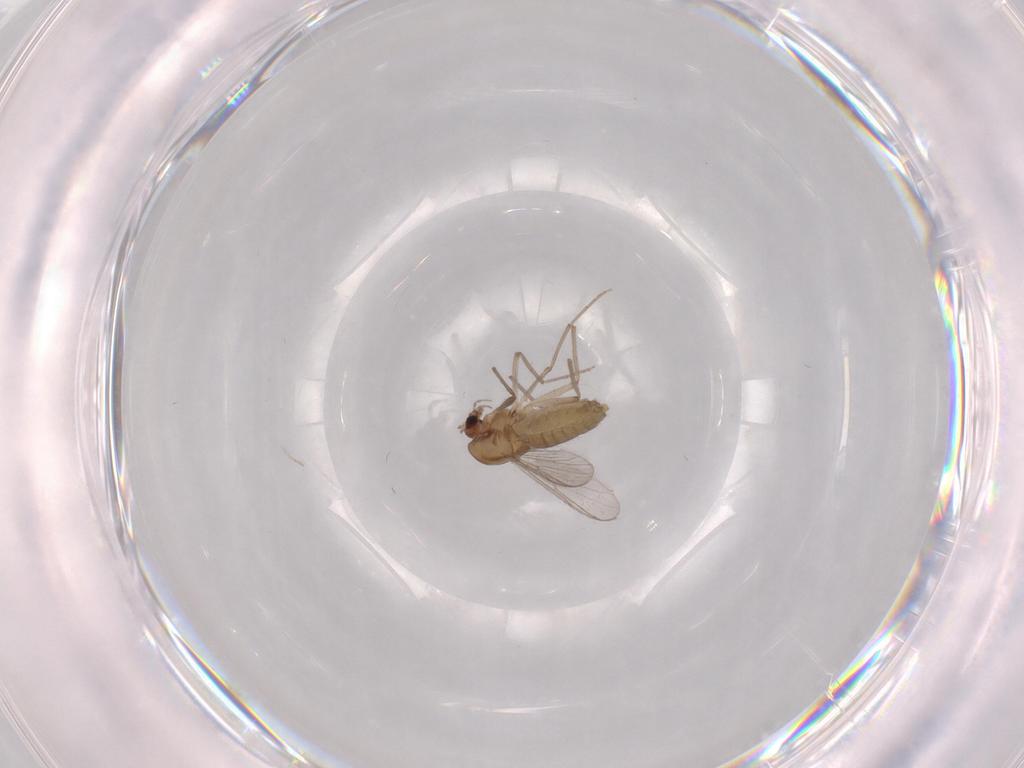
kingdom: Animalia
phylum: Arthropoda
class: Insecta
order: Diptera
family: Chironomidae
